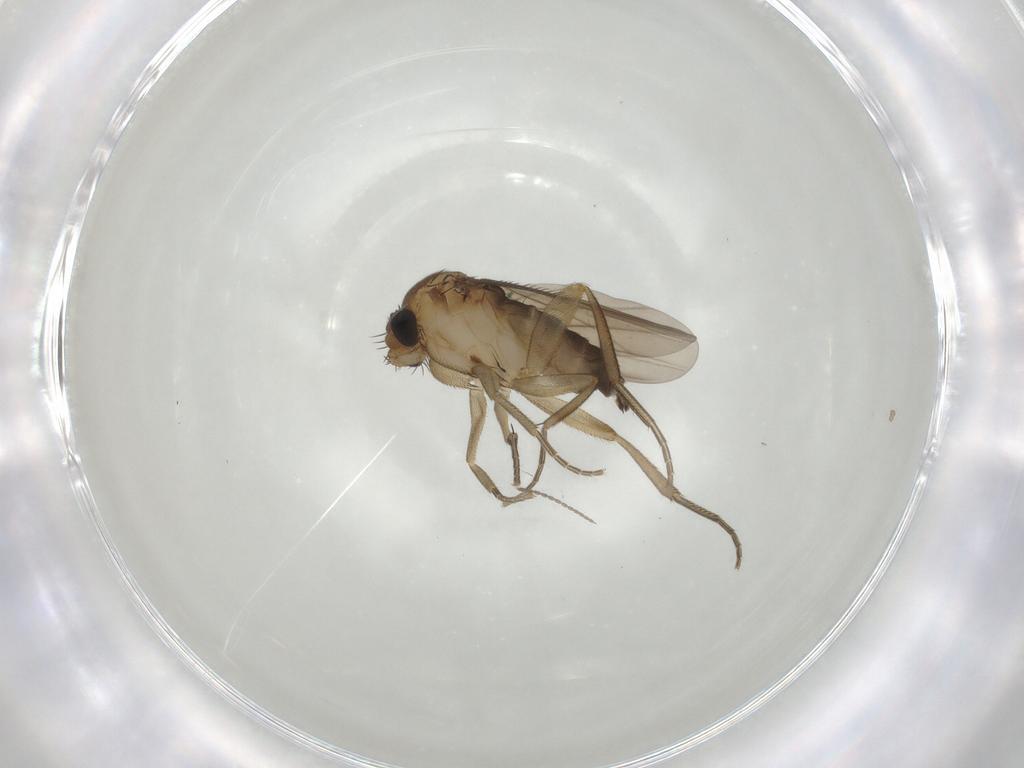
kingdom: Animalia
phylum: Arthropoda
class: Insecta
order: Diptera
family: Phoridae
